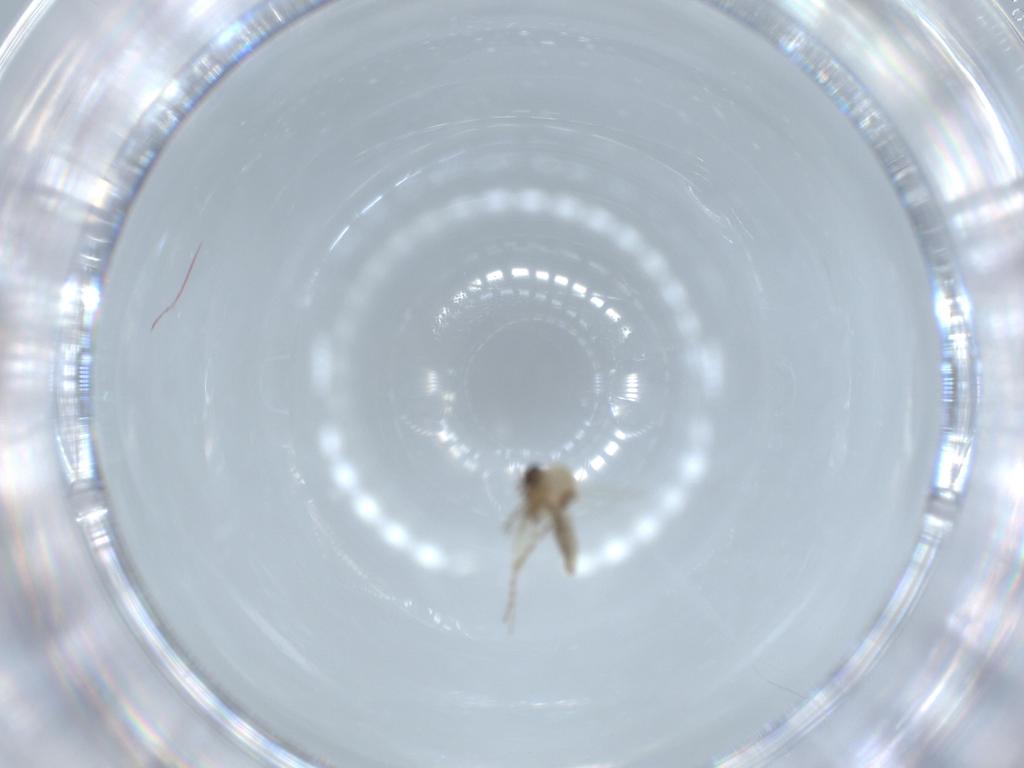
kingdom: Animalia
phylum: Arthropoda
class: Insecta
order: Diptera
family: Ceratopogonidae
